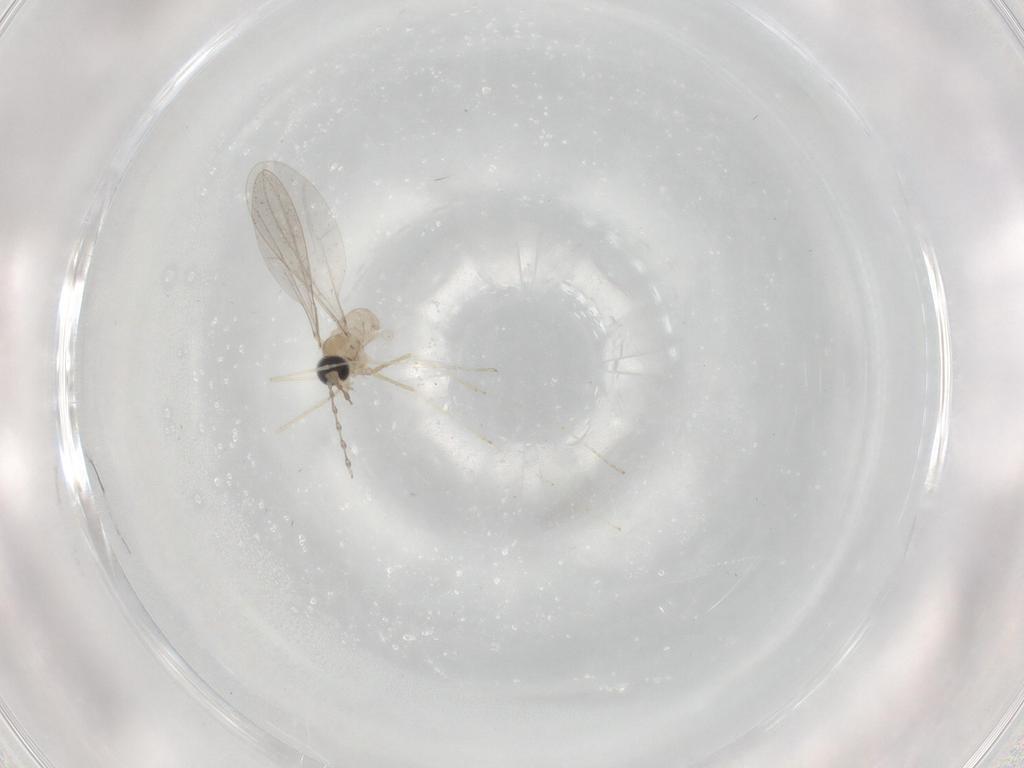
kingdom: Animalia
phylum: Arthropoda
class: Insecta
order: Diptera
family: Cecidomyiidae
